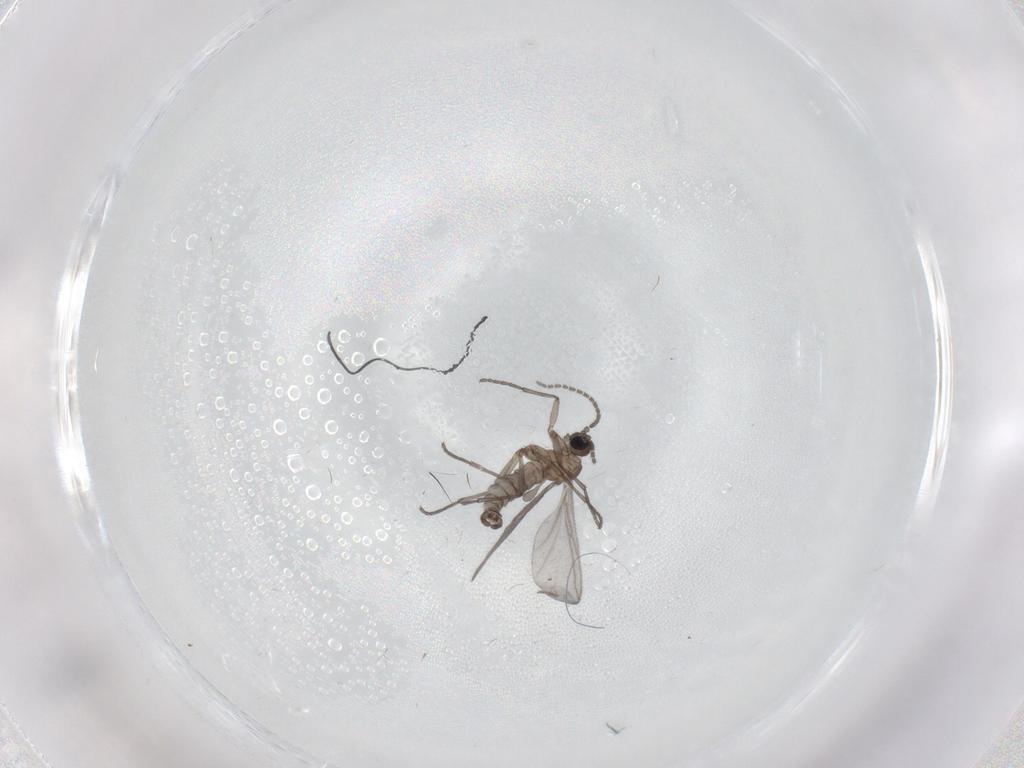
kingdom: Animalia
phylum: Arthropoda
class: Insecta
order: Diptera
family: Sciaridae
